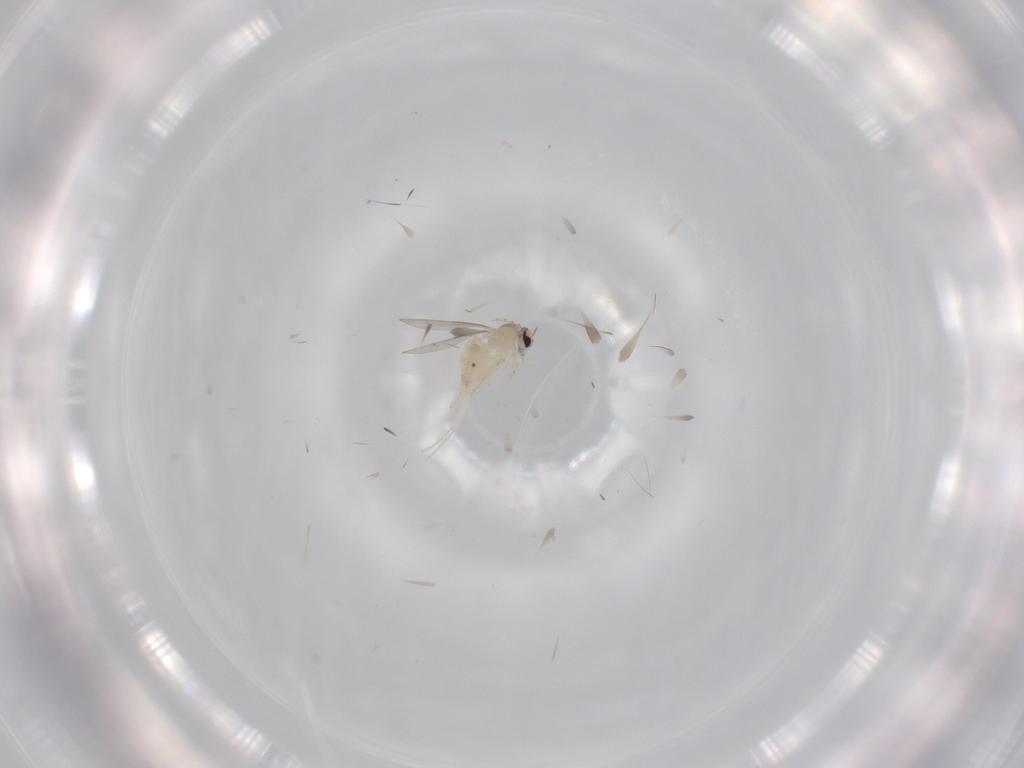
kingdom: Animalia
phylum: Arthropoda
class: Insecta
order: Diptera
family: Cecidomyiidae
